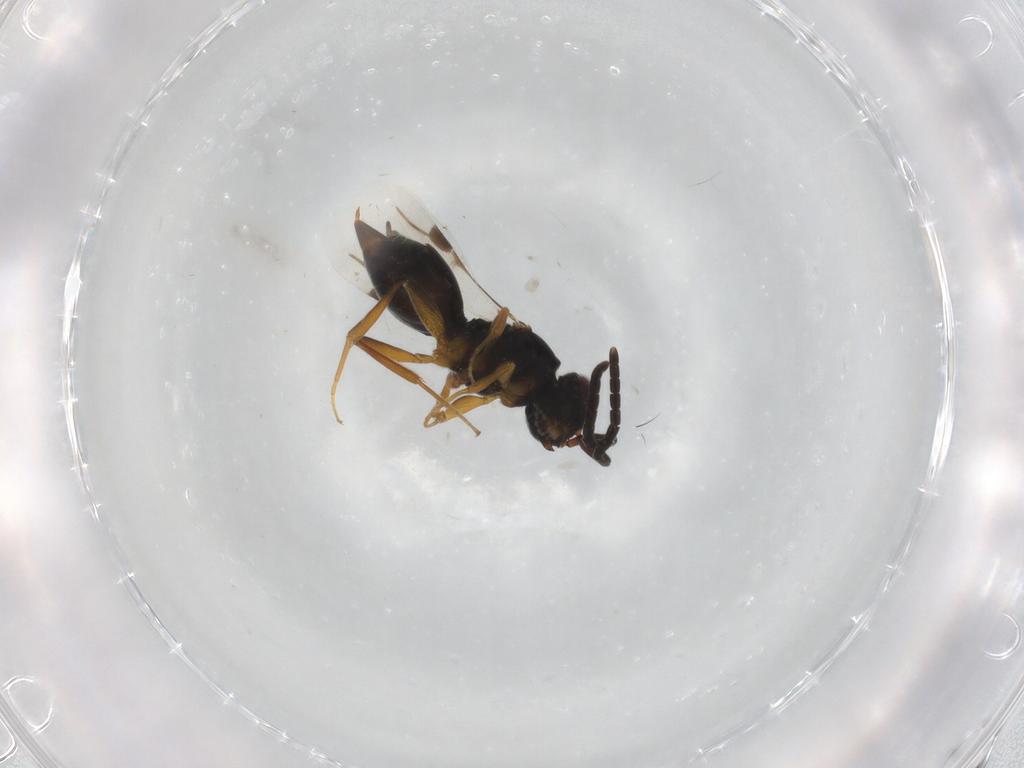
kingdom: Animalia
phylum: Arthropoda
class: Insecta
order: Hymenoptera
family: Megaspilidae
